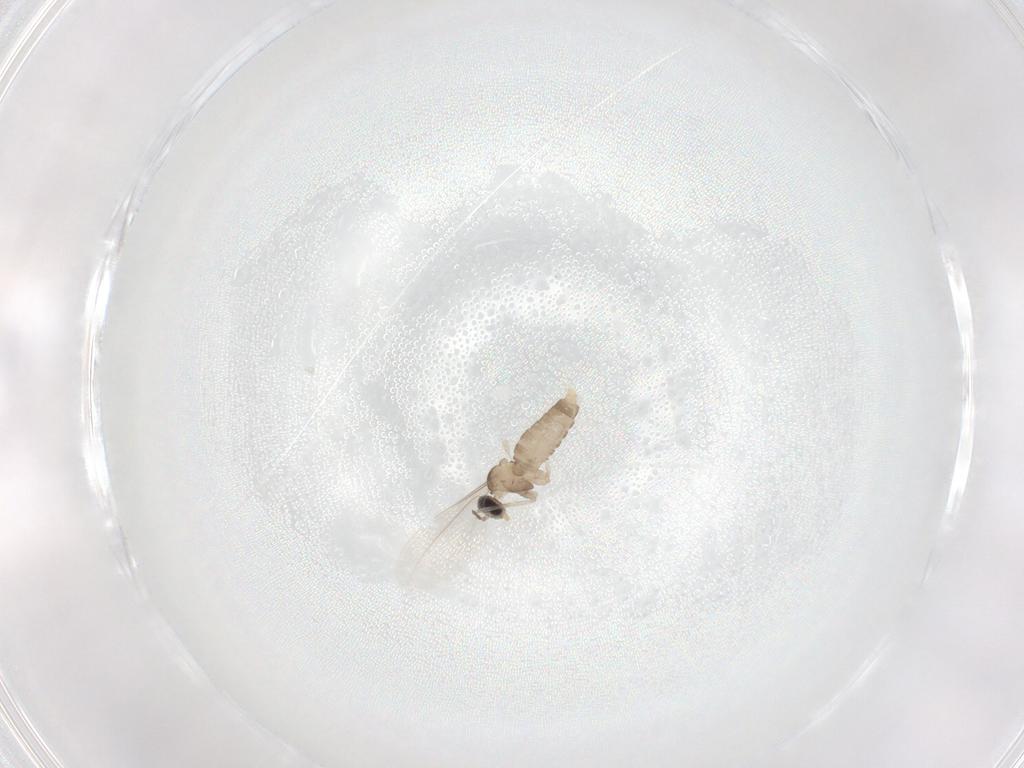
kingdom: Animalia
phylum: Arthropoda
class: Insecta
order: Diptera
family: Cecidomyiidae
